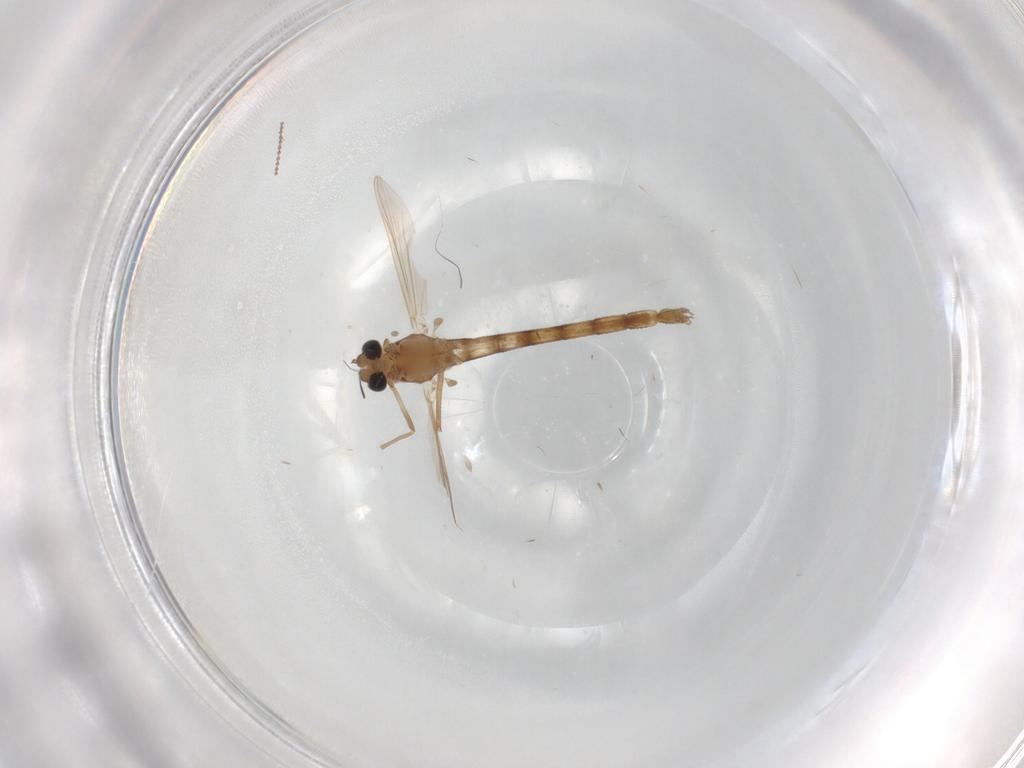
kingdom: Animalia
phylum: Arthropoda
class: Insecta
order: Diptera
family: Chironomidae
